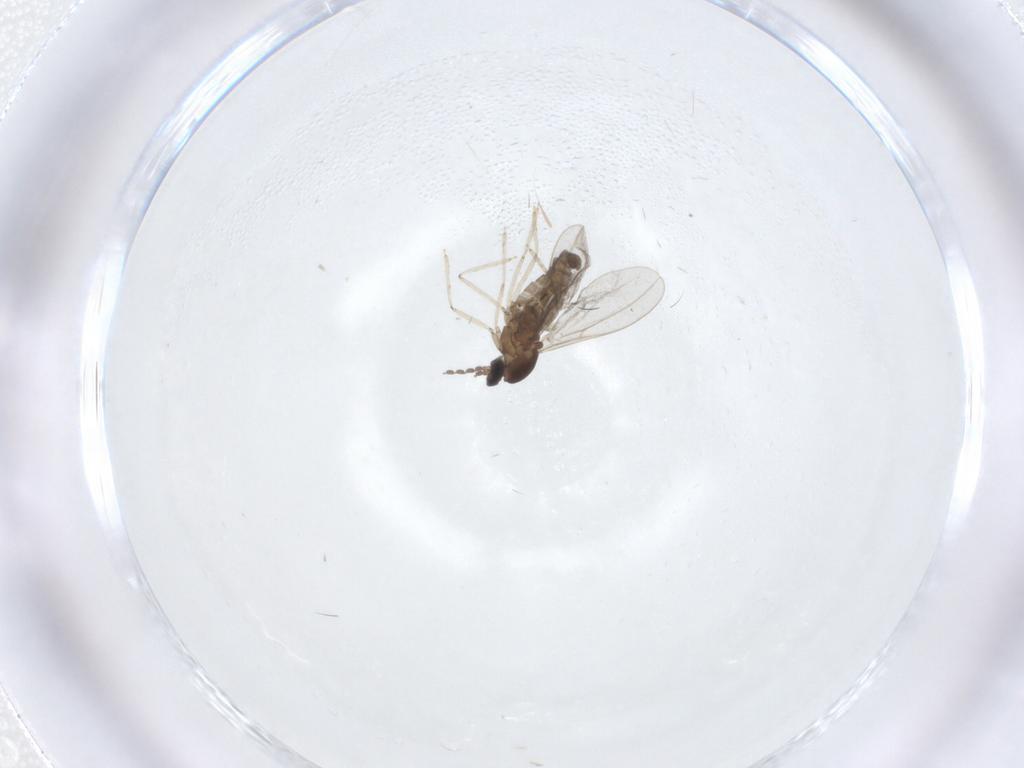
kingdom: Animalia
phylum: Arthropoda
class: Insecta
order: Diptera
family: Cecidomyiidae
